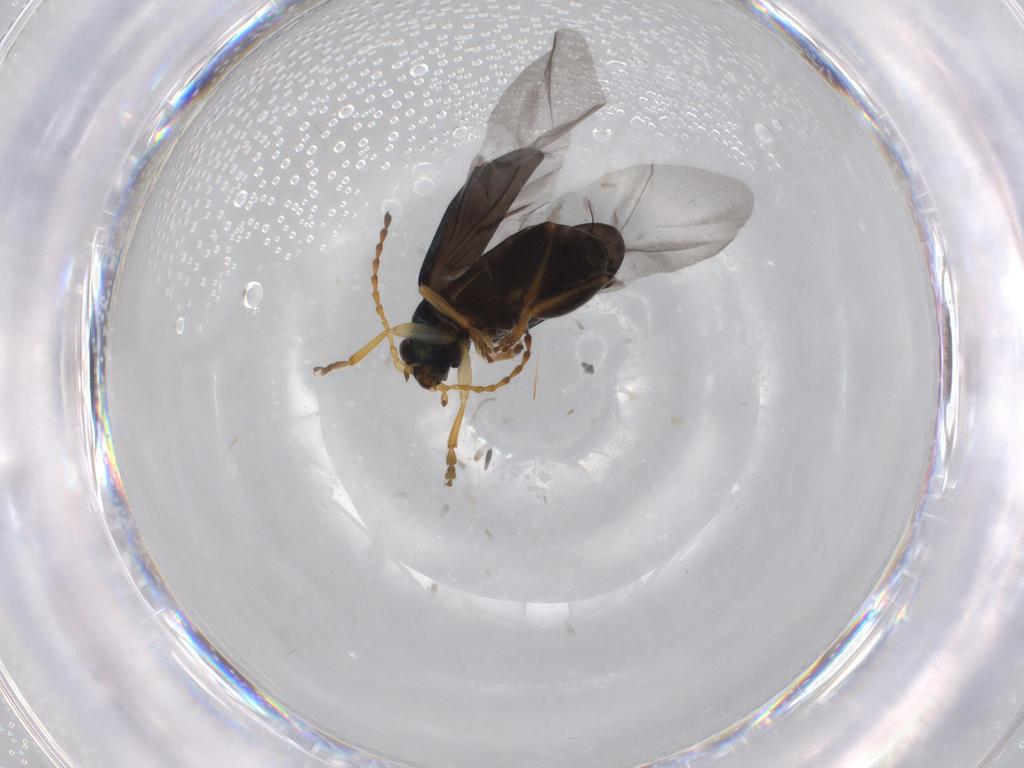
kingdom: Animalia
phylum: Arthropoda
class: Insecta
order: Coleoptera
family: Chrysomelidae
